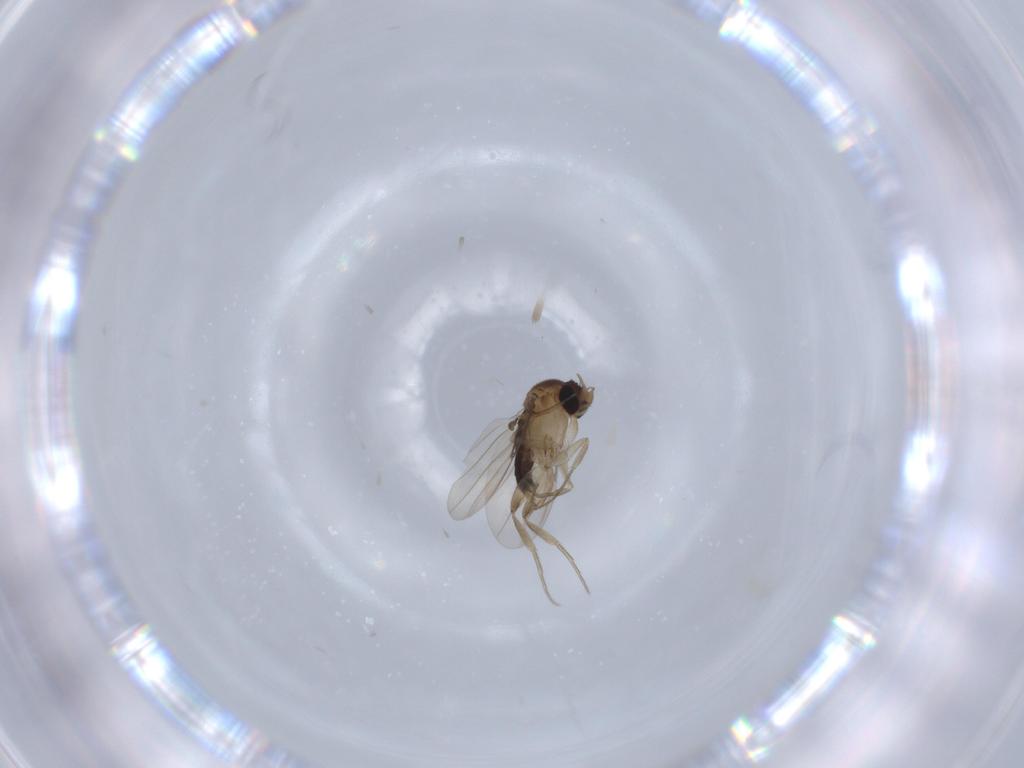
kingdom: Animalia
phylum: Arthropoda
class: Insecta
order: Diptera
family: Phoridae
